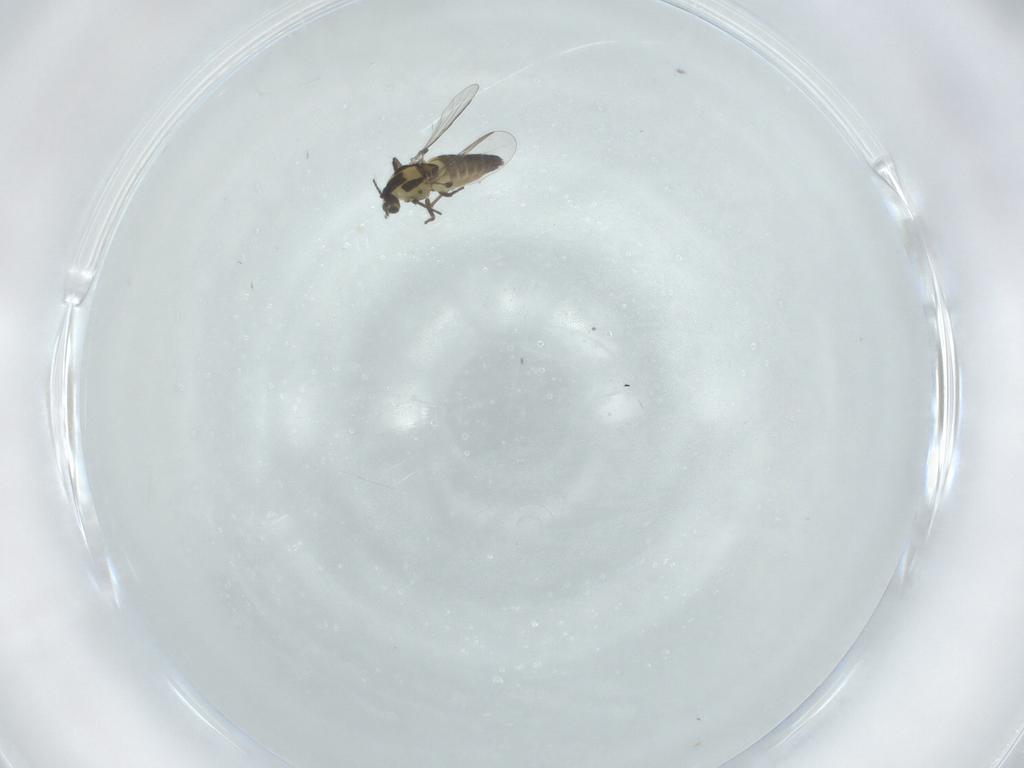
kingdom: Animalia
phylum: Arthropoda
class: Insecta
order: Diptera
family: Chironomidae
